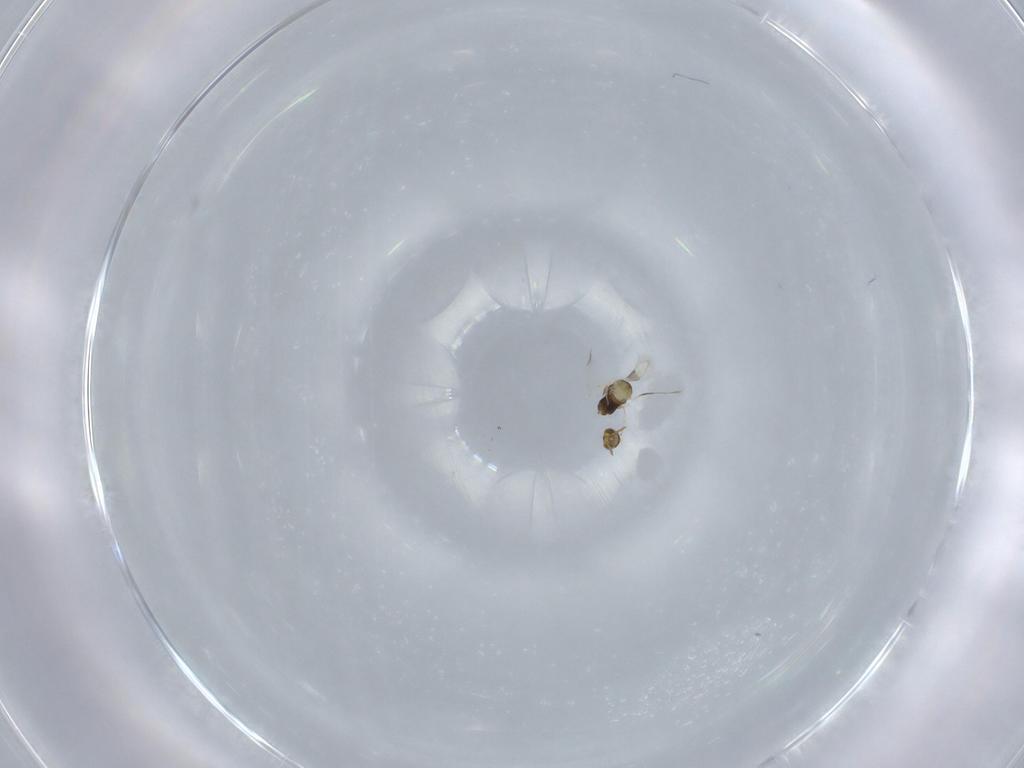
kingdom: Animalia
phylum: Arthropoda
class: Insecta
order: Hymenoptera
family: Aphelinidae
